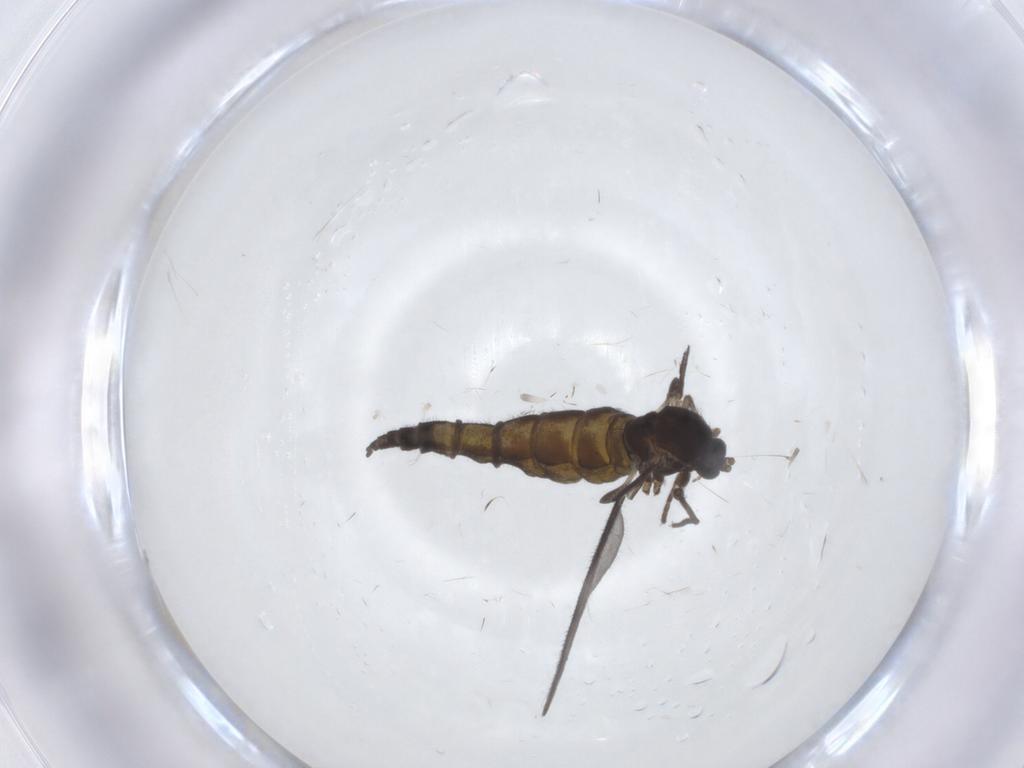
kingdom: Animalia
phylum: Arthropoda
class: Insecta
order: Diptera
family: Sciaridae
